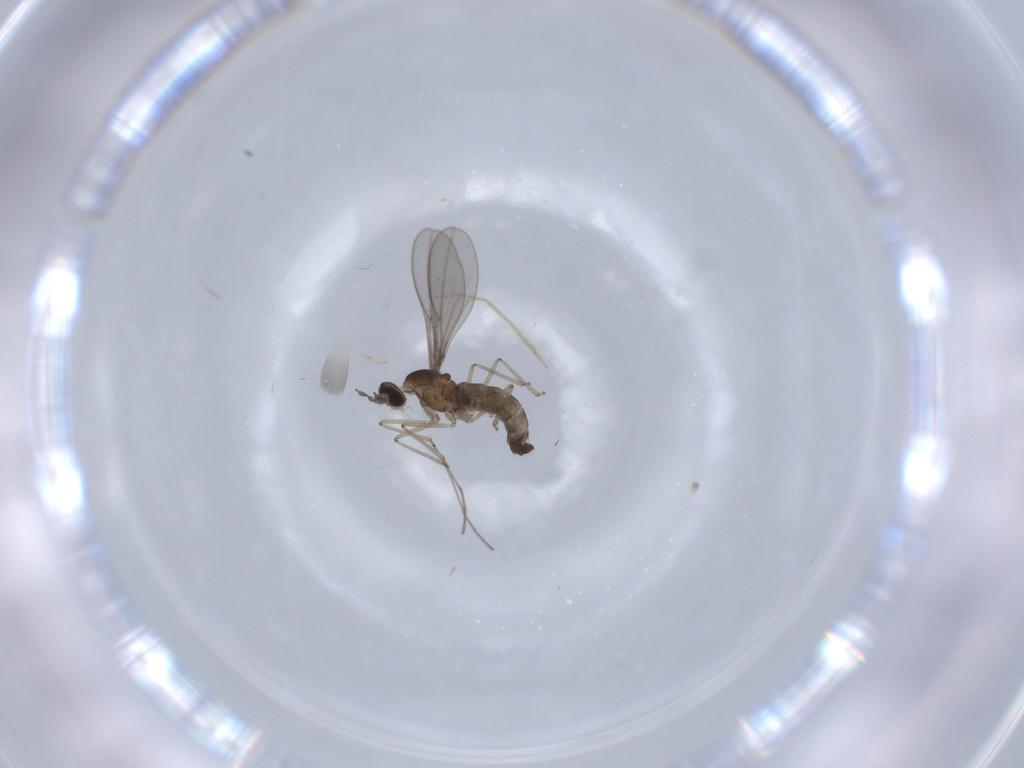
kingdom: Animalia
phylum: Arthropoda
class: Insecta
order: Diptera
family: Cecidomyiidae
